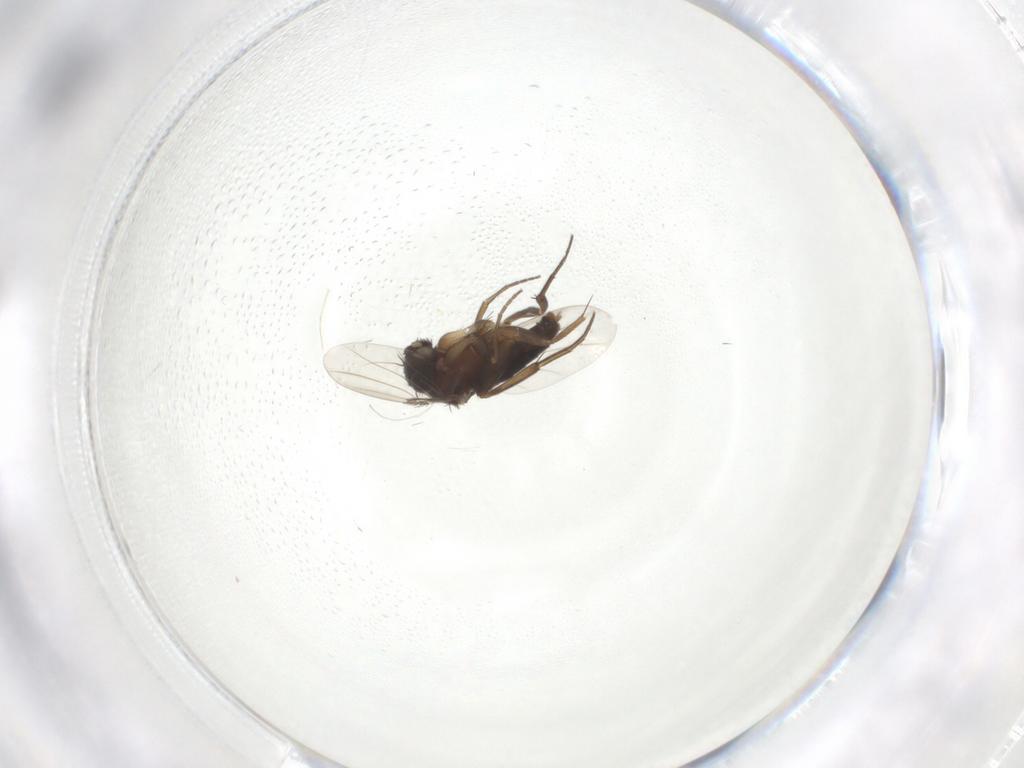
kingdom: Animalia
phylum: Arthropoda
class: Insecta
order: Diptera
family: Phoridae
